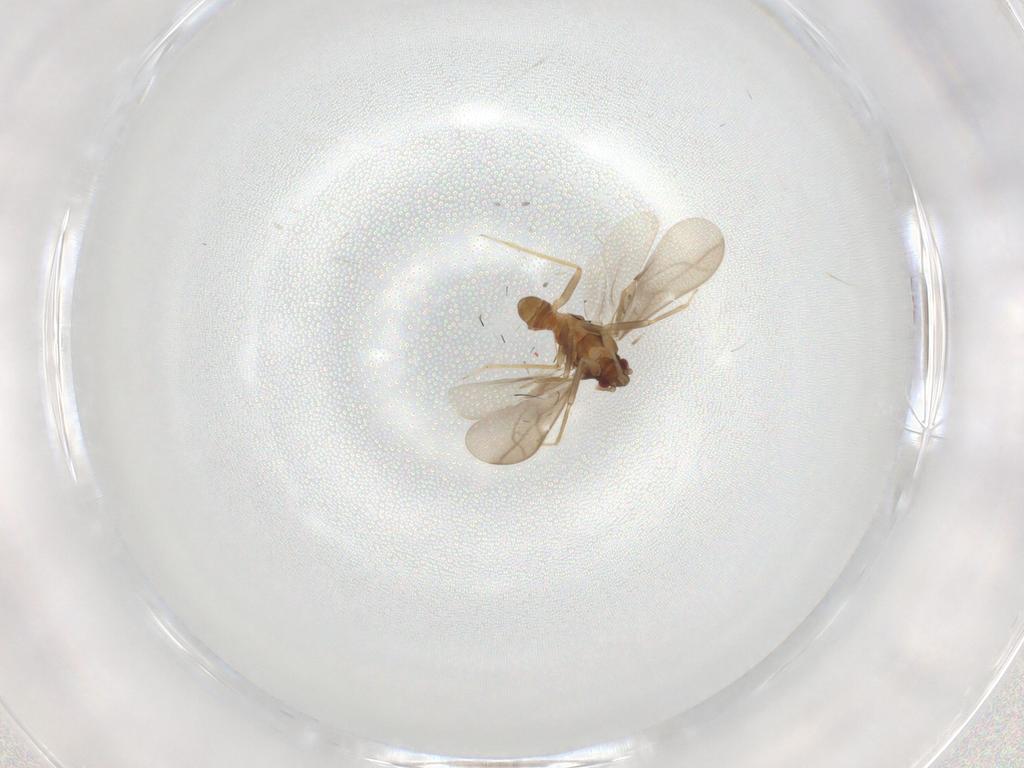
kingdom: Animalia
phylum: Arthropoda
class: Insecta
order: Hemiptera
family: Ceratocombidae
